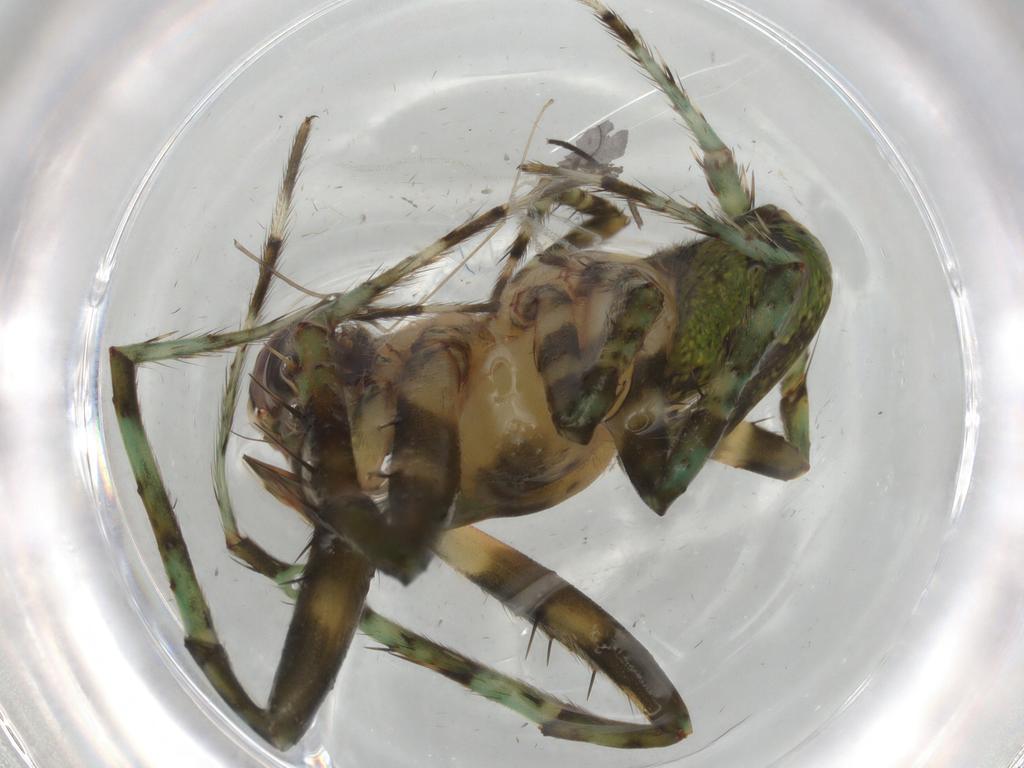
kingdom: Animalia
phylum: Arthropoda
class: Arachnida
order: Araneae
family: Araneidae
